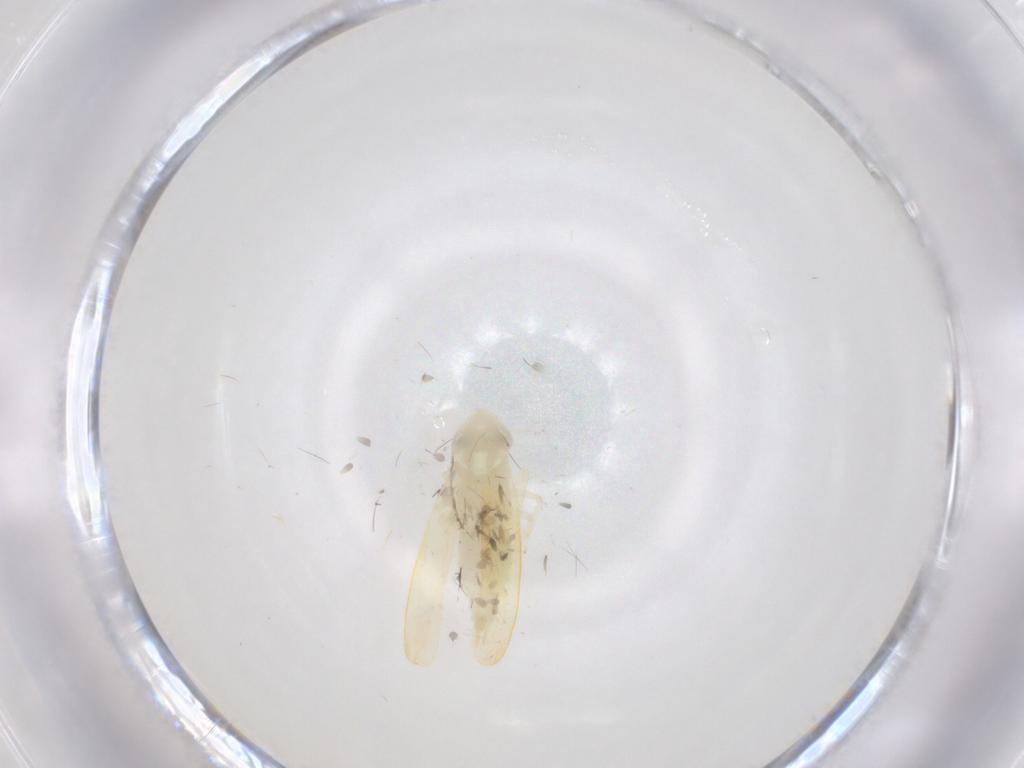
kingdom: Animalia
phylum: Arthropoda
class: Insecta
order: Hemiptera
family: Cicadellidae
